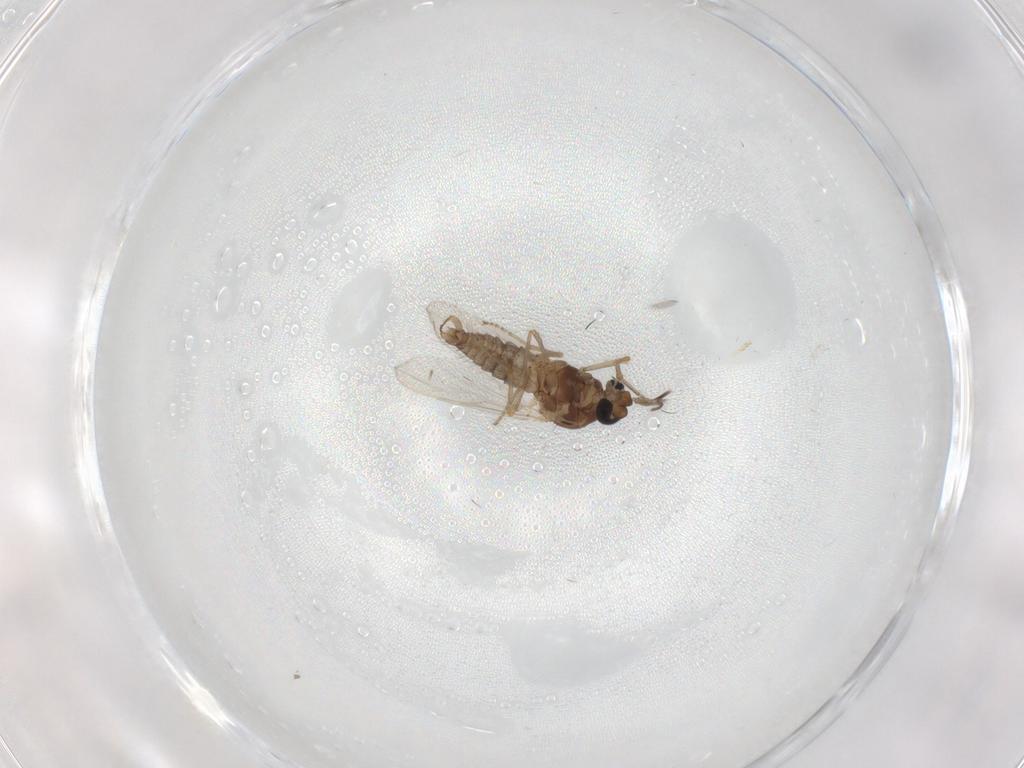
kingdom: Animalia
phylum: Arthropoda
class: Insecta
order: Diptera
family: Ceratopogonidae
